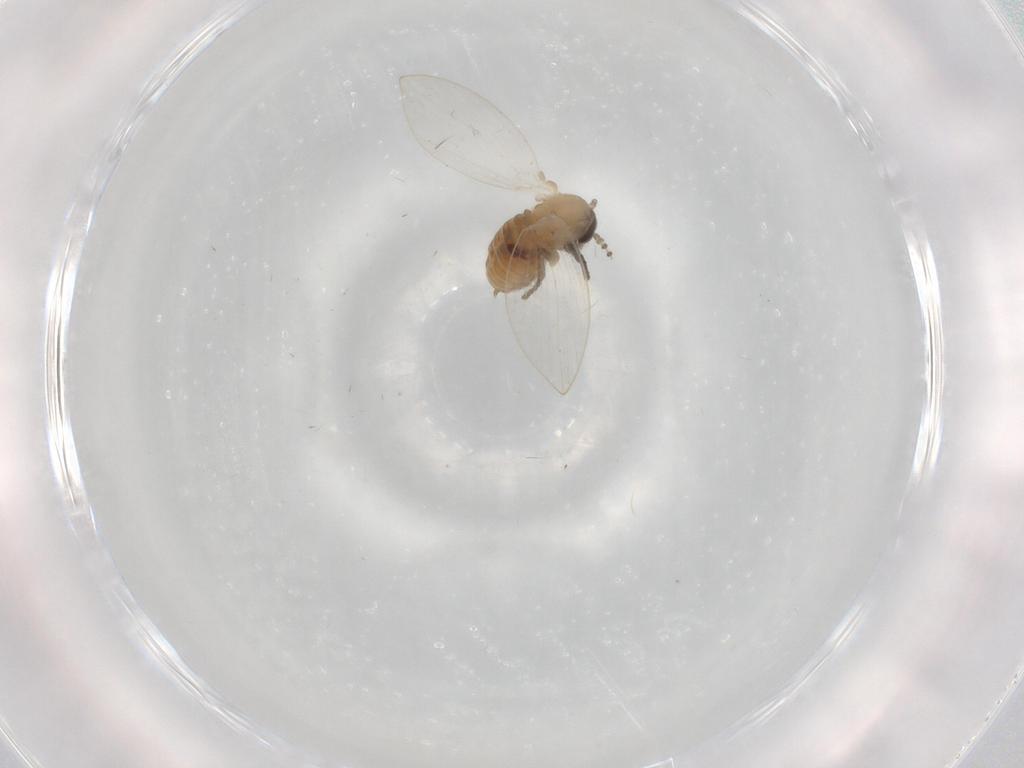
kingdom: Animalia
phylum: Arthropoda
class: Insecta
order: Diptera
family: Psychodidae
